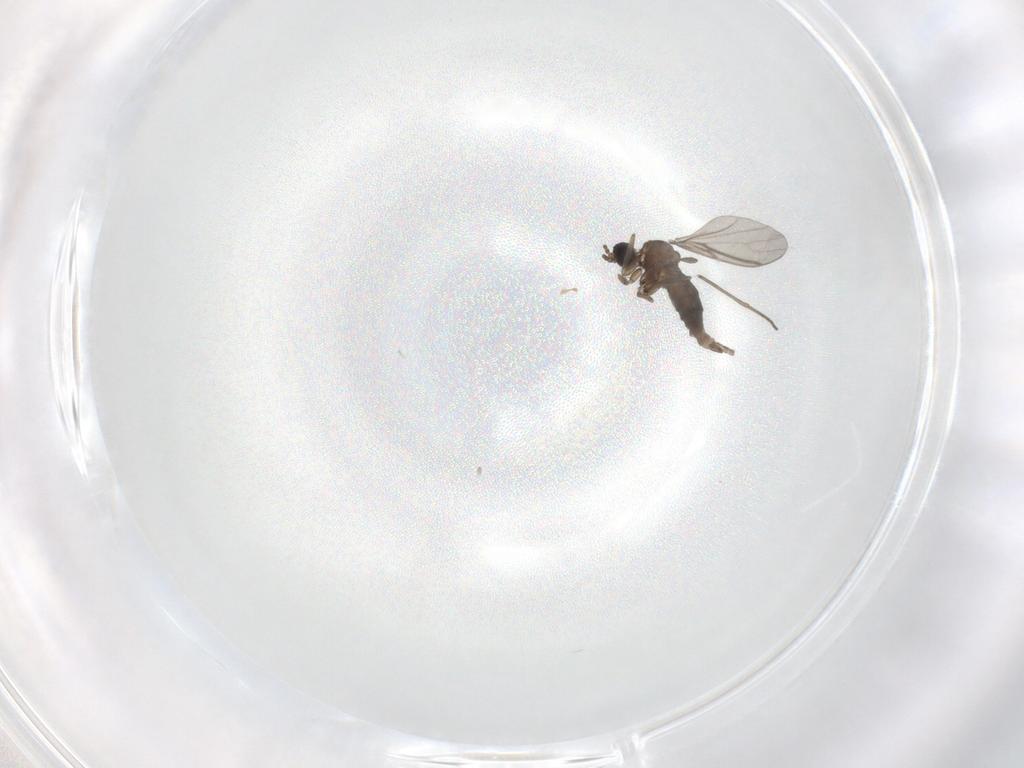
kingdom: Animalia
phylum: Arthropoda
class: Insecta
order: Diptera
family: Chironomidae
